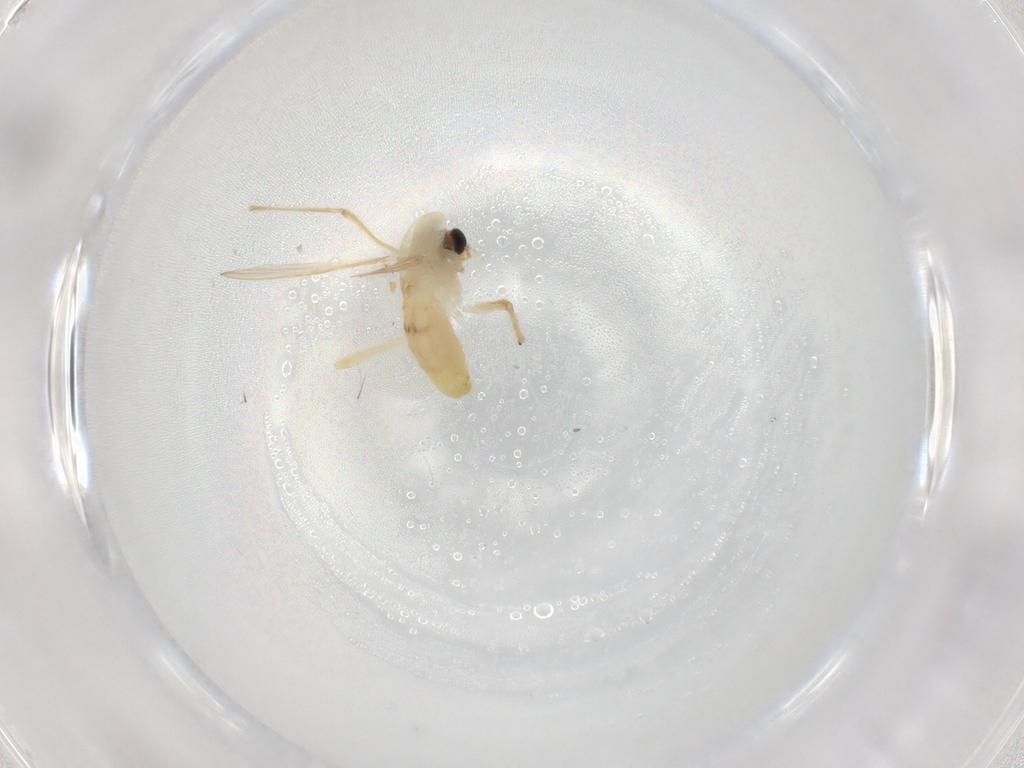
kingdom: Animalia
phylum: Arthropoda
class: Insecta
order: Diptera
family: Chironomidae
